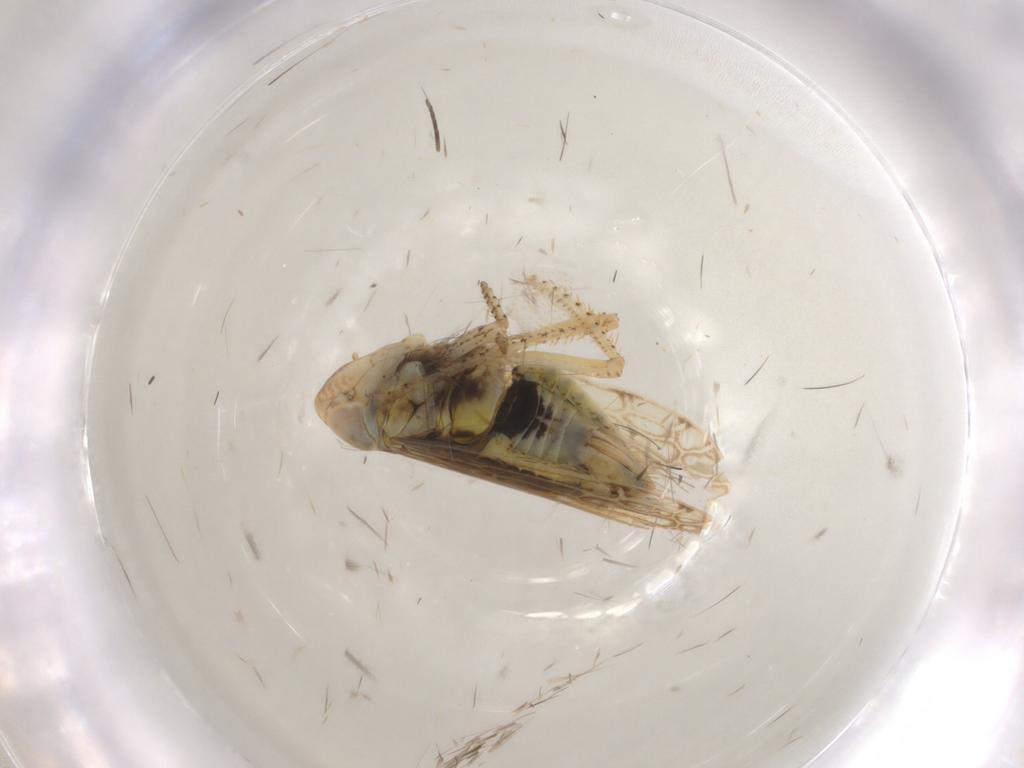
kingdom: Animalia
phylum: Arthropoda
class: Insecta
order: Hemiptera
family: Cicadellidae
